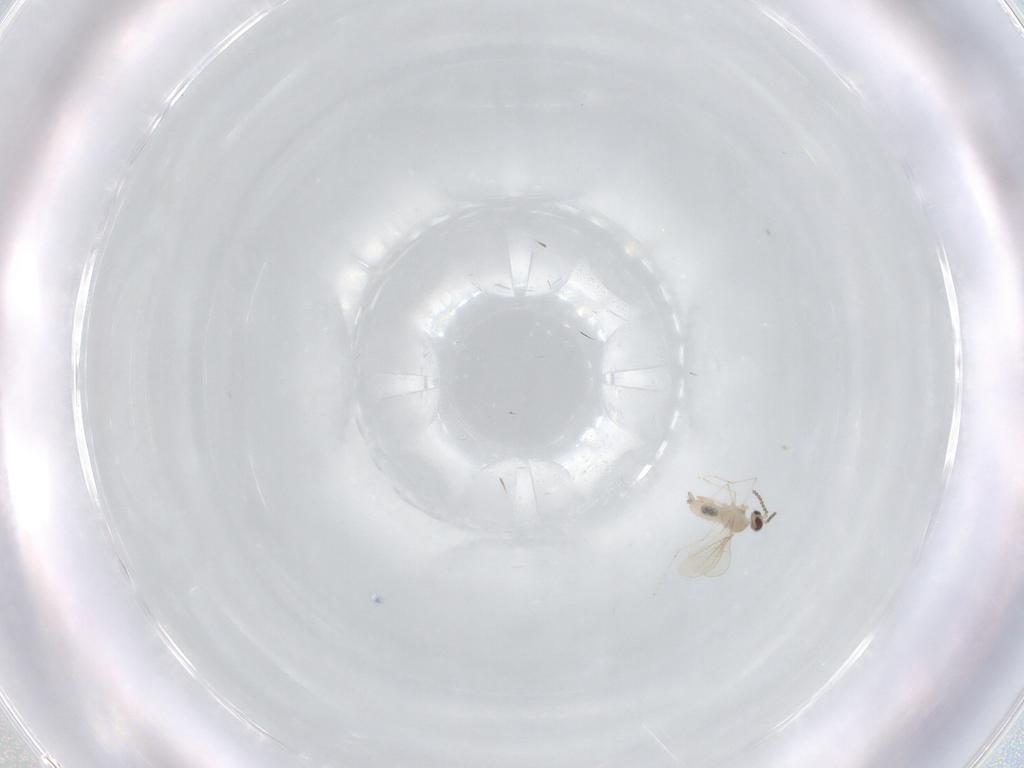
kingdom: Animalia
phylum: Arthropoda
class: Insecta
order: Diptera
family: Cecidomyiidae
